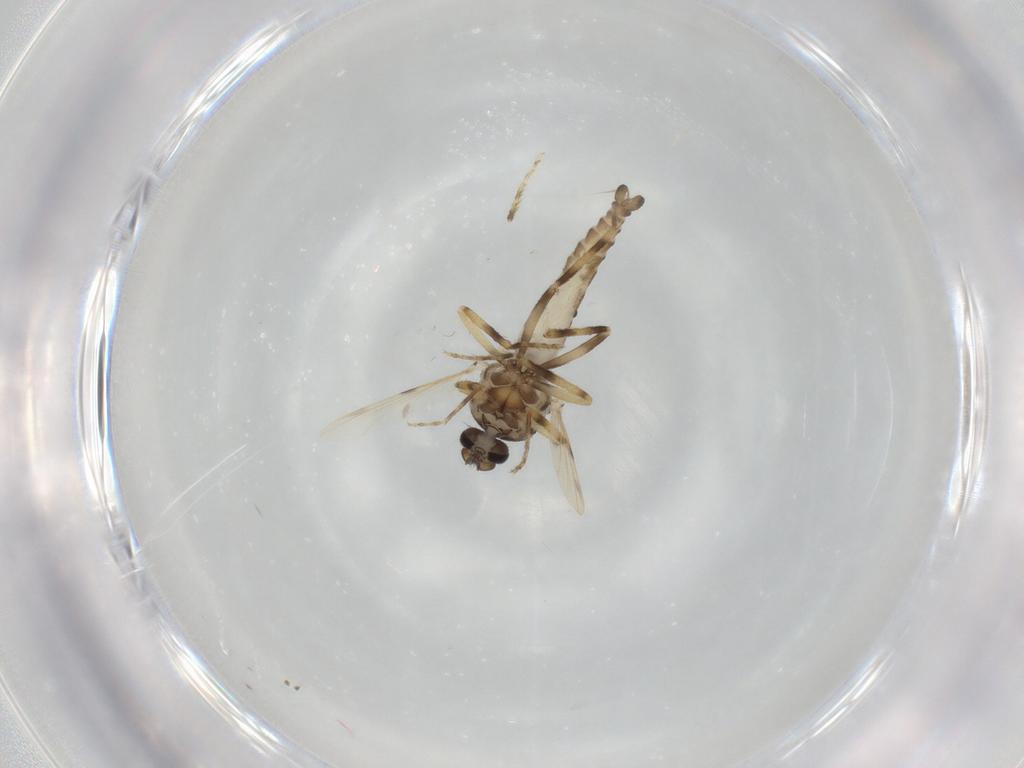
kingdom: Animalia
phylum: Arthropoda
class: Insecta
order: Diptera
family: Ceratopogonidae
